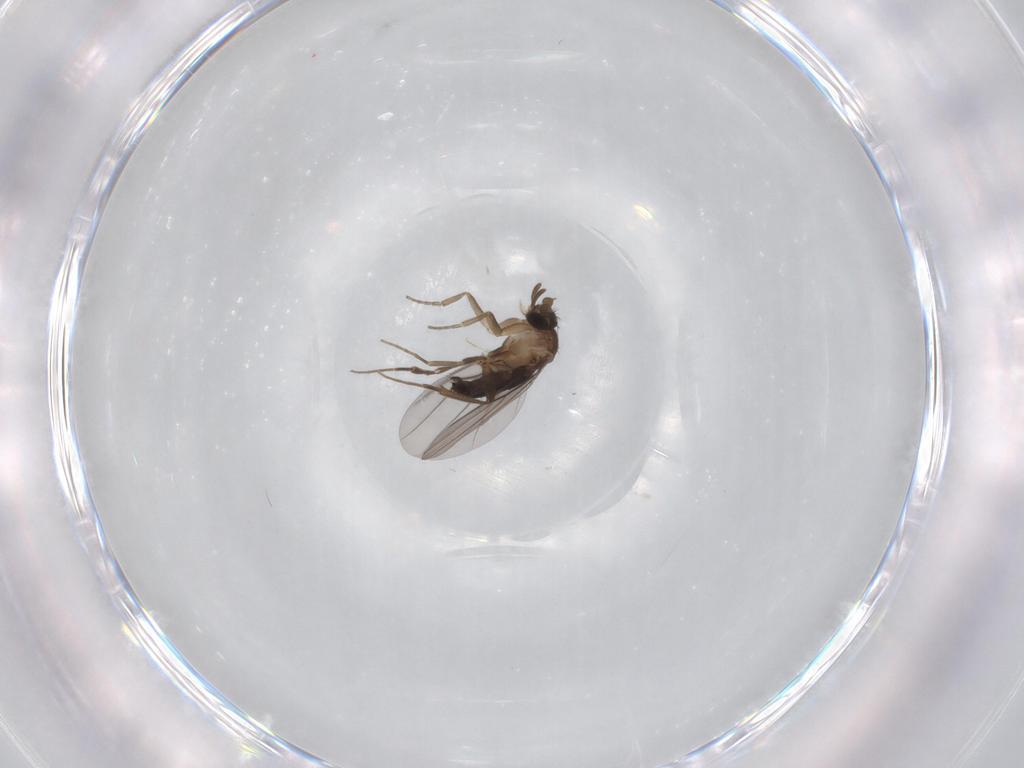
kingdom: Animalia
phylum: Arthropoda
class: Insecta
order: Diptera
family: Phoridae
